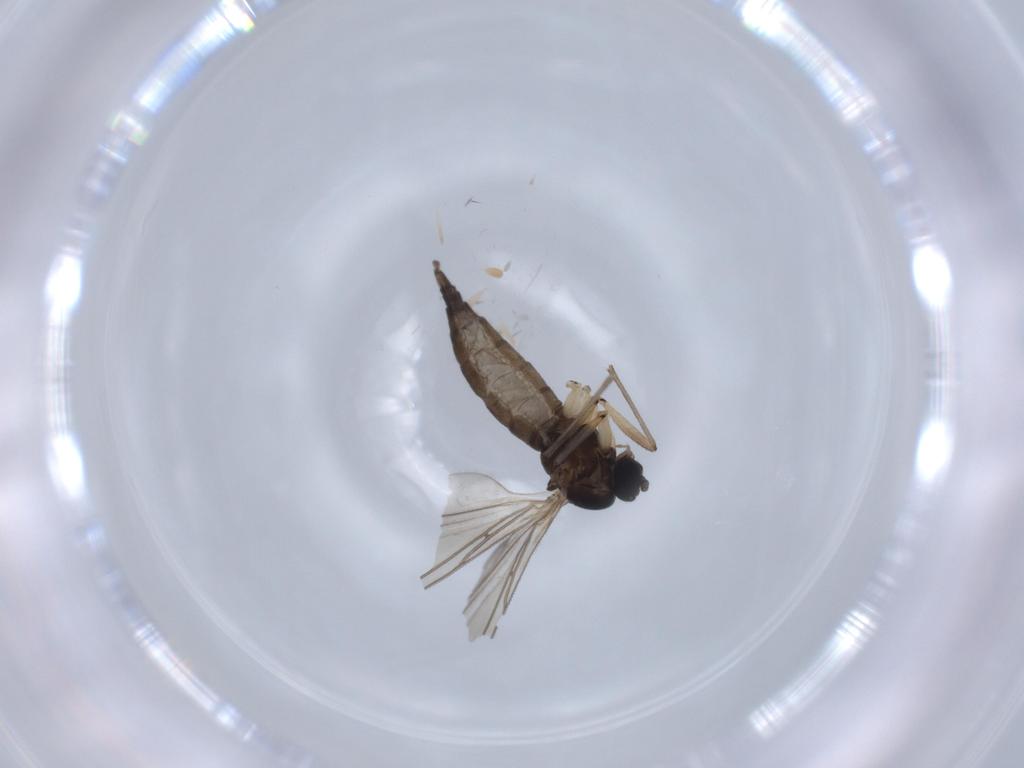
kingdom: Animalia
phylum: Arthropoda
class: Insecta
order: Diptera
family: Sciaridae
